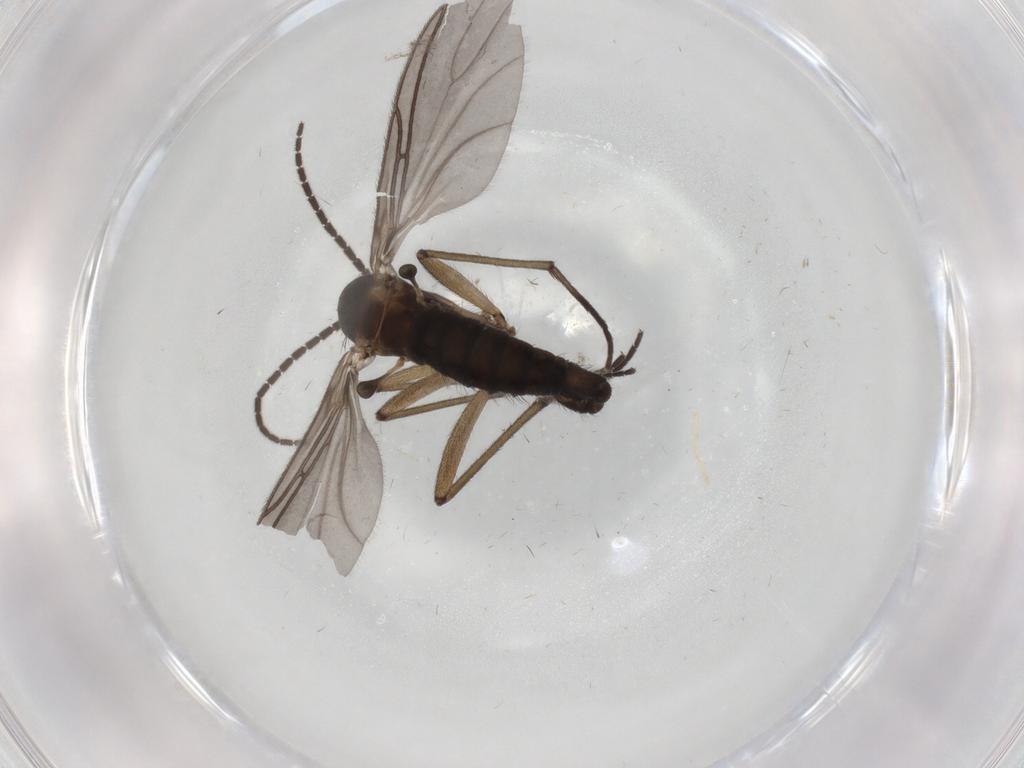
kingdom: Animalia
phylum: Arthropoda
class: Insecta
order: Diptera
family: Sciaridae
